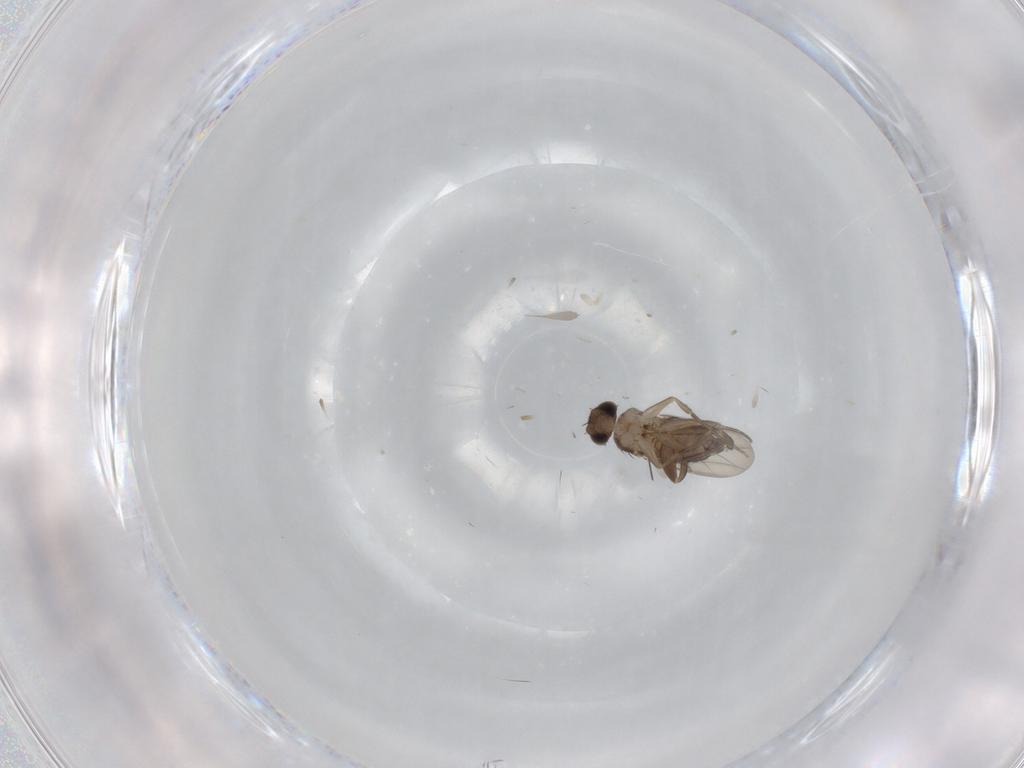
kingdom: Animalia
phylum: Arthropoda
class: Insecta
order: Diptera
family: Phoridae
